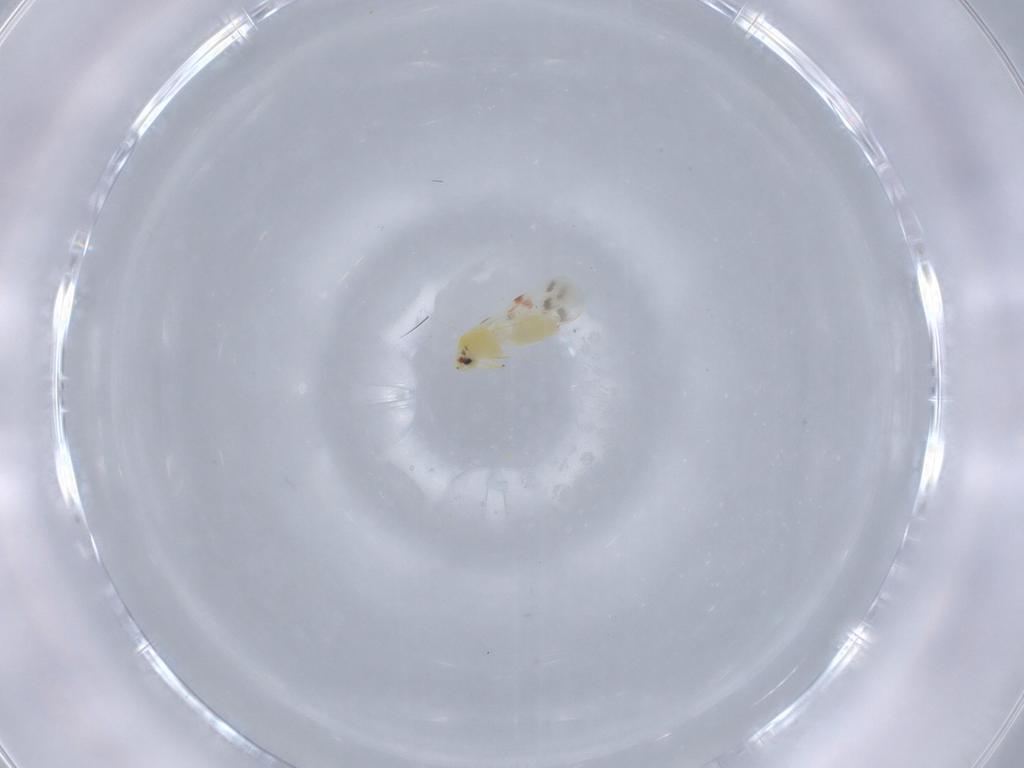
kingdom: Animalia
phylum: Arthropoda
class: Insecta
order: Hemiptera
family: Aleyrodidae
